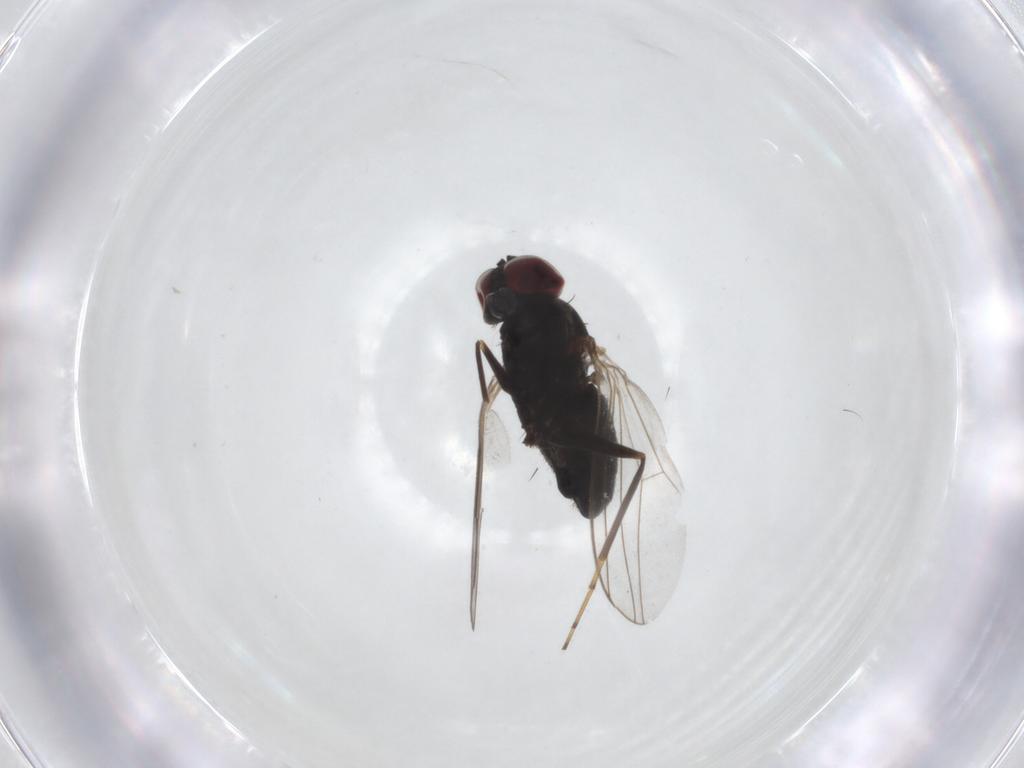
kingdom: Animalia
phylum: Arthropoda
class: Insecta
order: Diptera
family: Dolichopodidae
